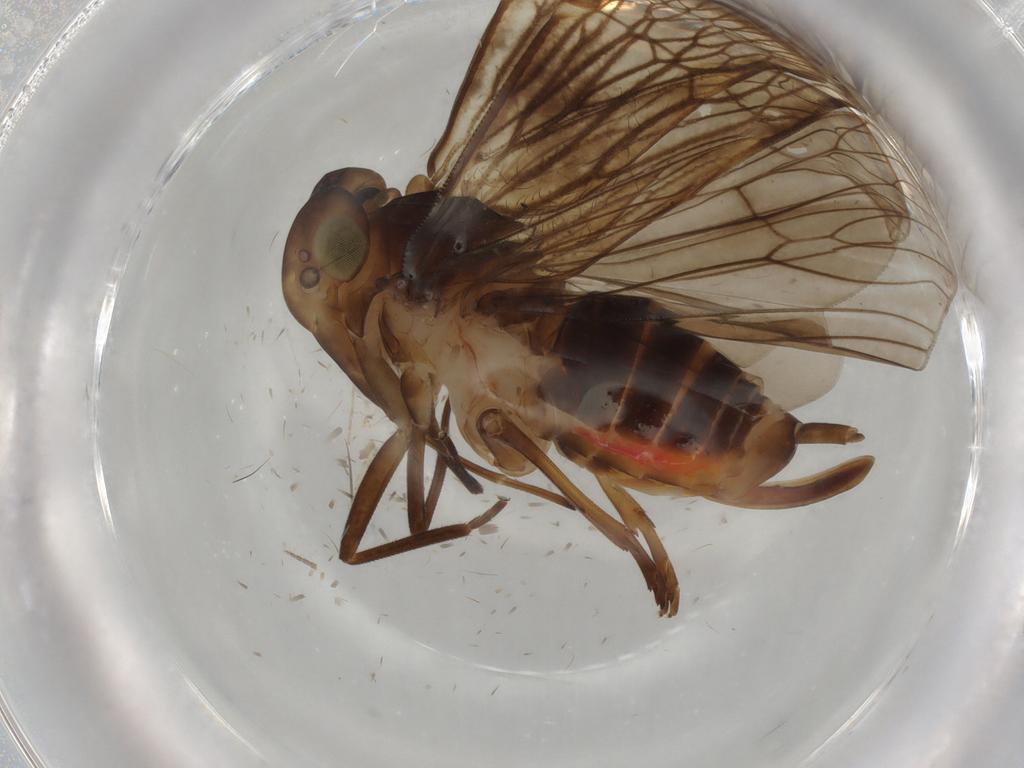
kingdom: Animalia
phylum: Arthropoda
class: Insecta
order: Hemiptera
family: Cixiidae
